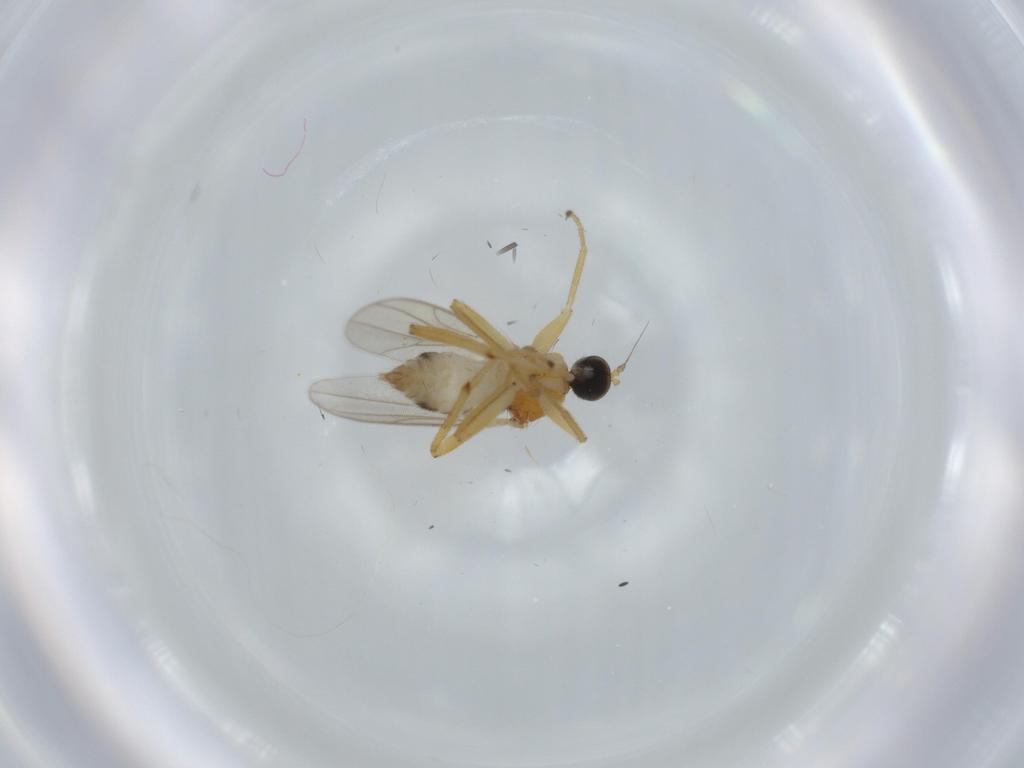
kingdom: Animalia
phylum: Arthropoda
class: Insecta
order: Diptera
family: Hybotidae
